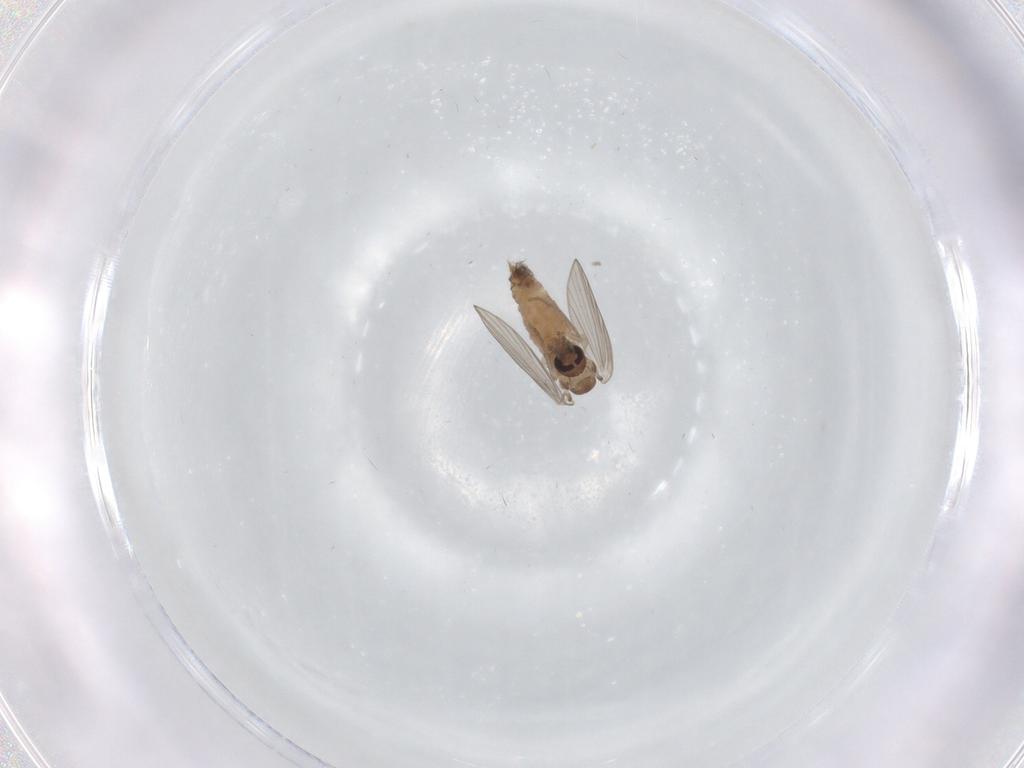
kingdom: Animalia
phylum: Arthropoda
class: Insecta
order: Diptera
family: Psychodidae
